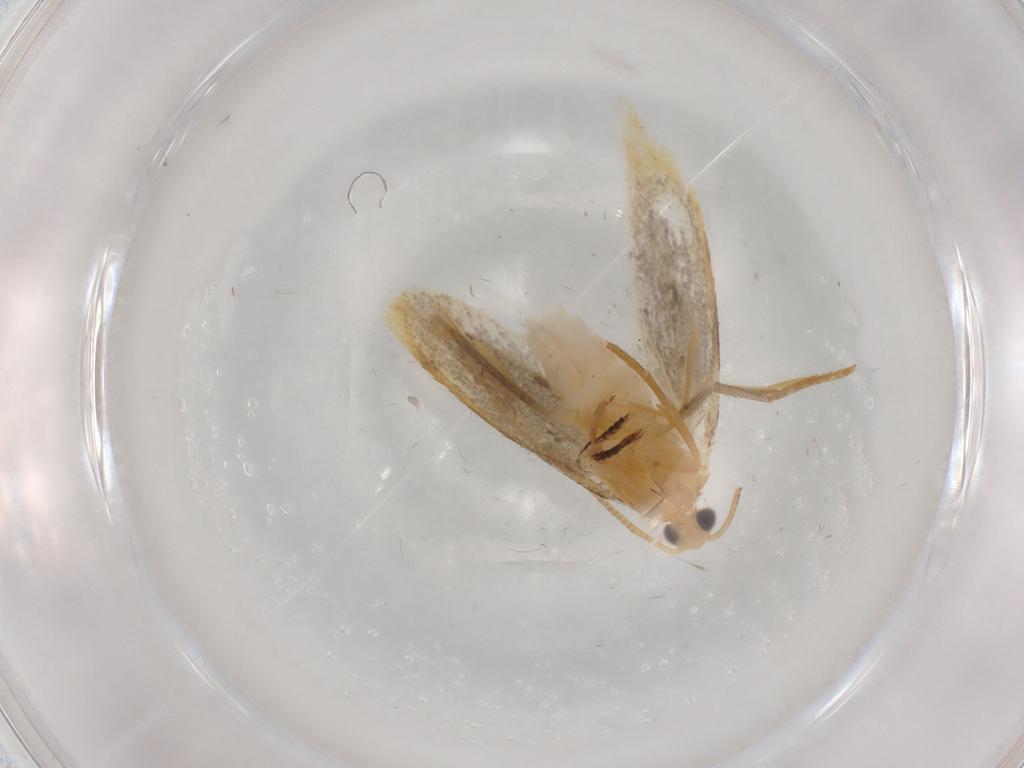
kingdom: Animalia
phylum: Arthropoda
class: Insecta
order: Lepidoptera
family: Tineidae
